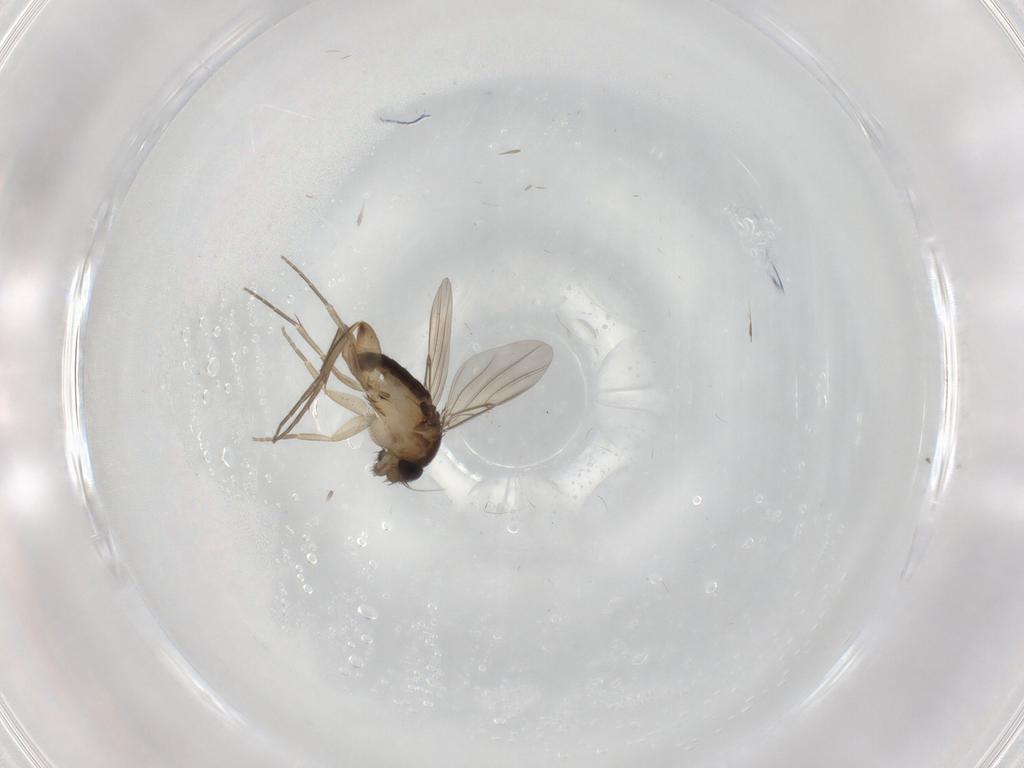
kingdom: Animalia
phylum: Arthropoda
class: Insecta
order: Diptera
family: Phoridae
